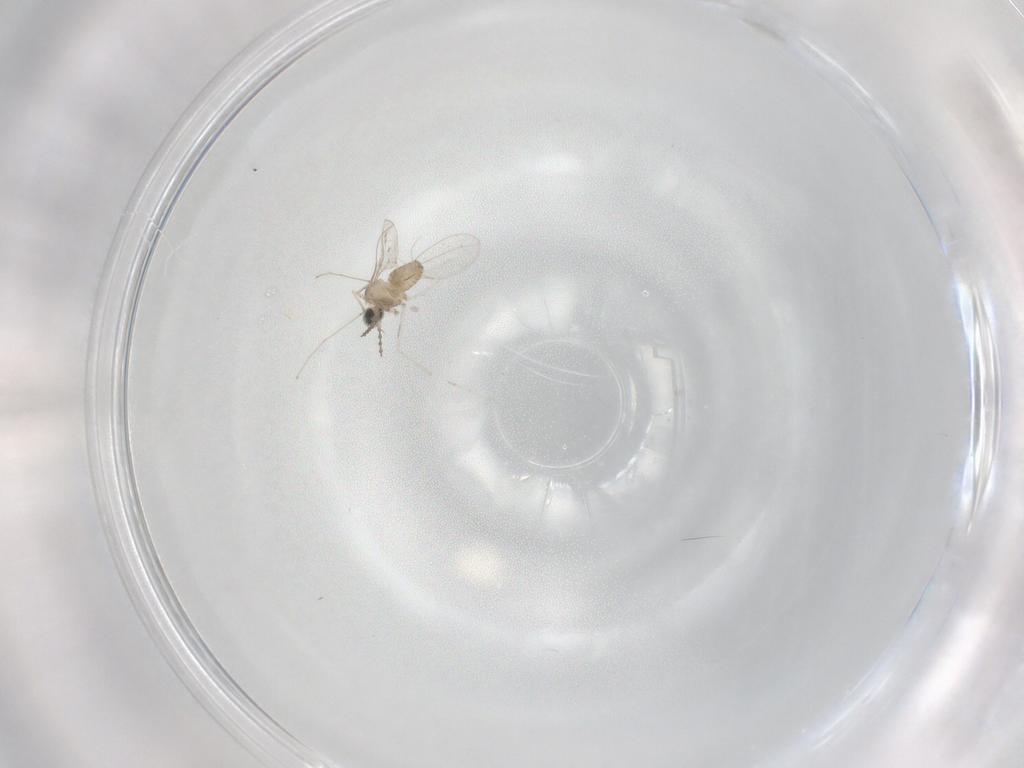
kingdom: Animalia
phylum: Arthropoda
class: Insecta
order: Diptera
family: Cecidomyiidae
